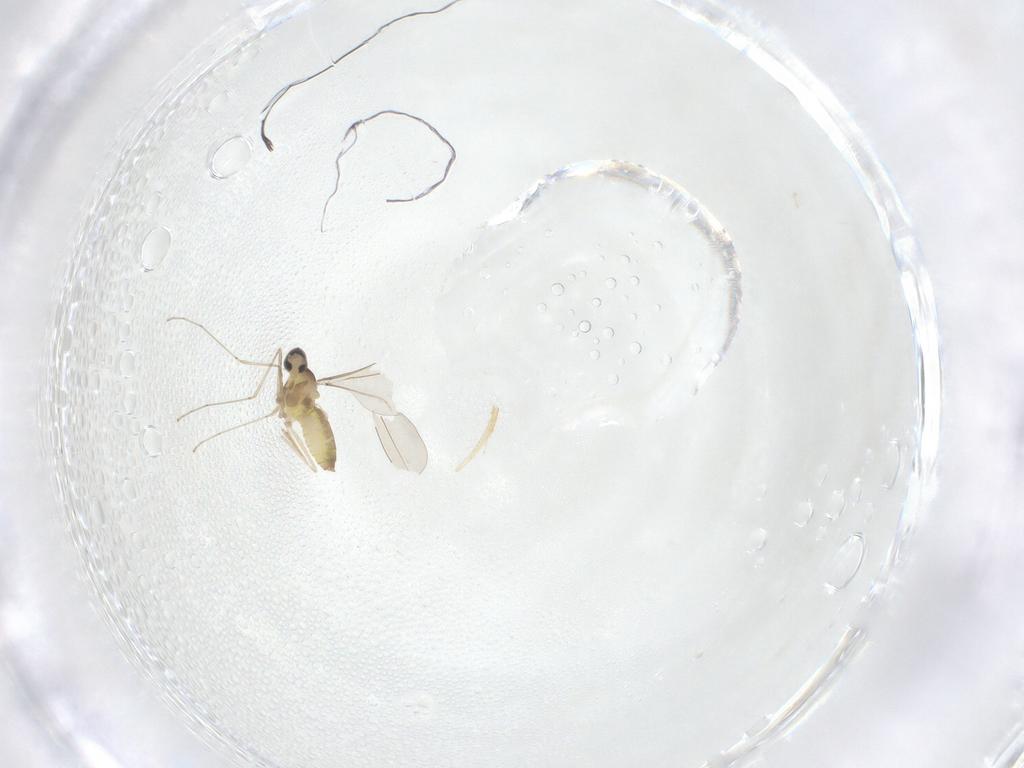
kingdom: Animalia
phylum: Arthropoda
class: Insecta
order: Diptera
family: Cecidomyiidae
